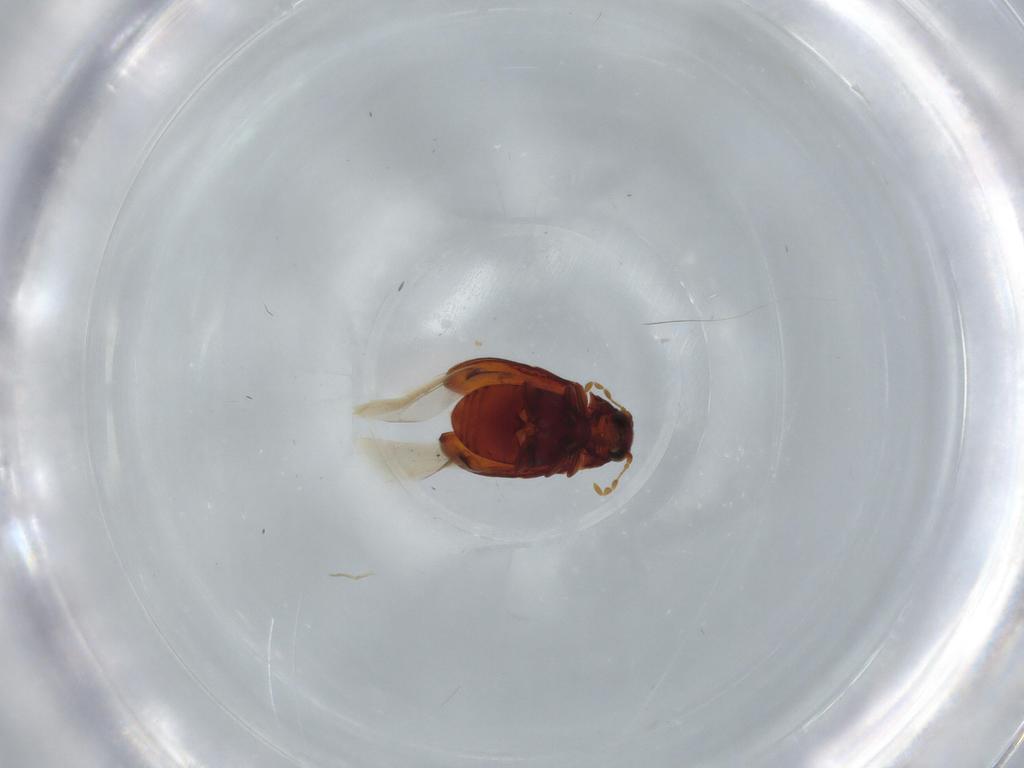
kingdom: Animalia
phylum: Arthropoda
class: Insecta
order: Coleoptera
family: Ptinidae
